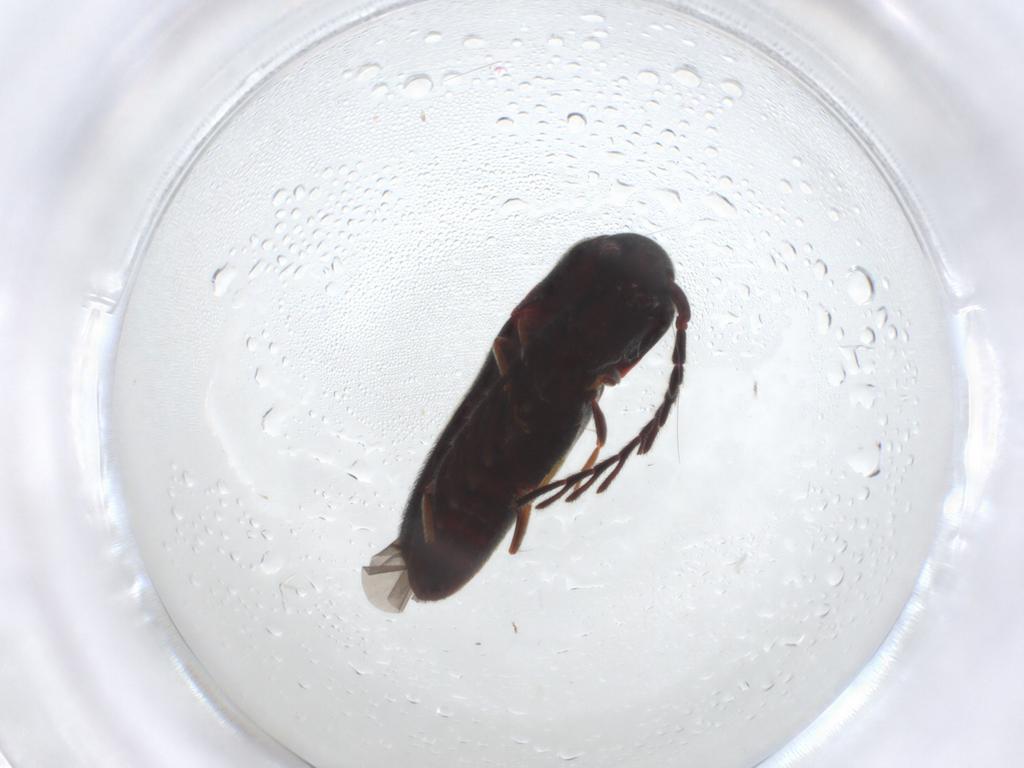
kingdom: Animalia
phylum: Arthropoda
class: Insecta
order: Coleoptera
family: Eucnemidae
